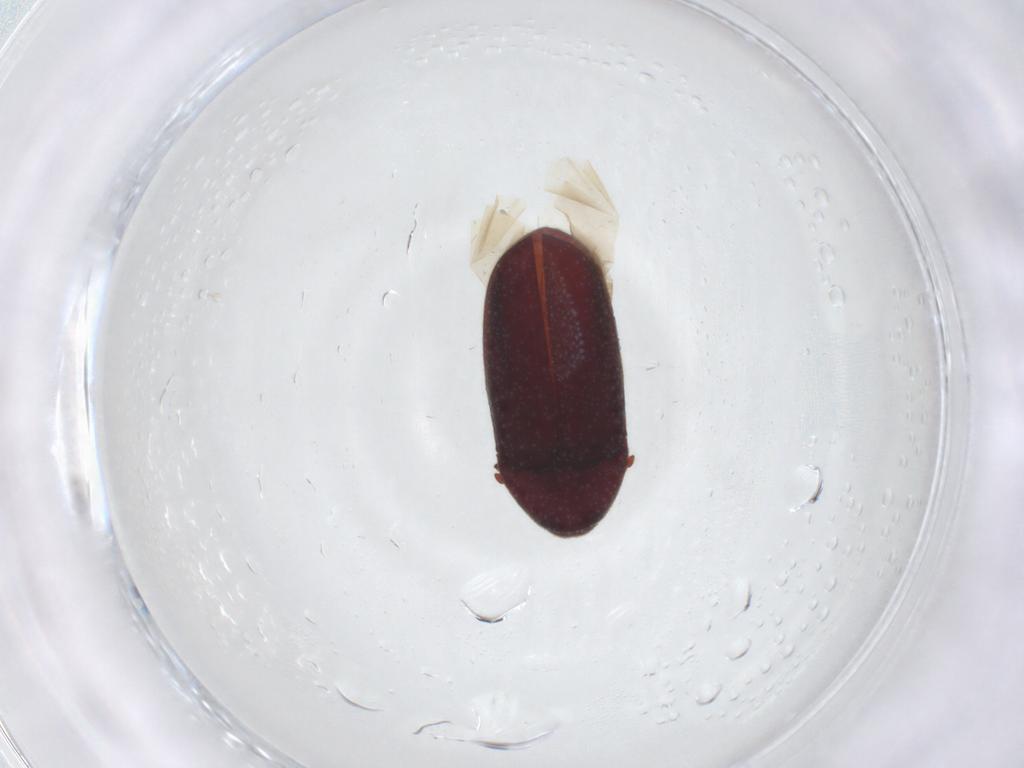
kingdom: Animalia
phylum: Arthropoda
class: Insecta
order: Coleoptera
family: Throscidae
